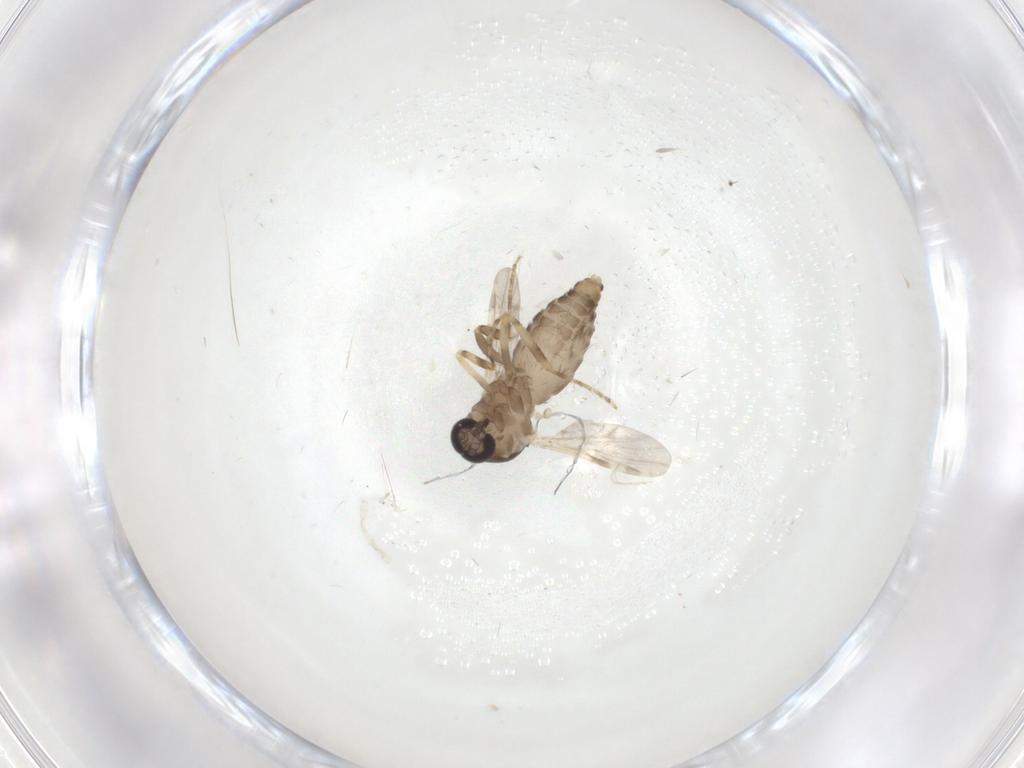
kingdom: Animalia
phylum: Arthropoda
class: Insecta
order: Diptera
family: Ceratopogonidae
